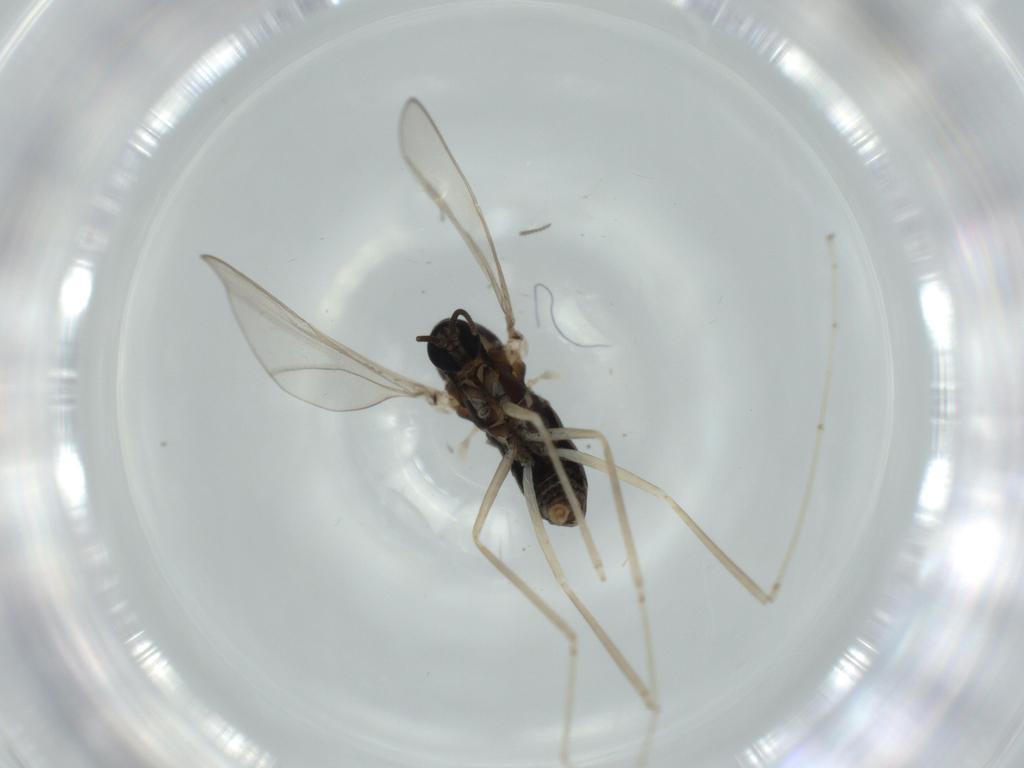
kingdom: Animalia
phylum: Arthropoda
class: Insecta
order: Diptera
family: Cecidomyiidae
